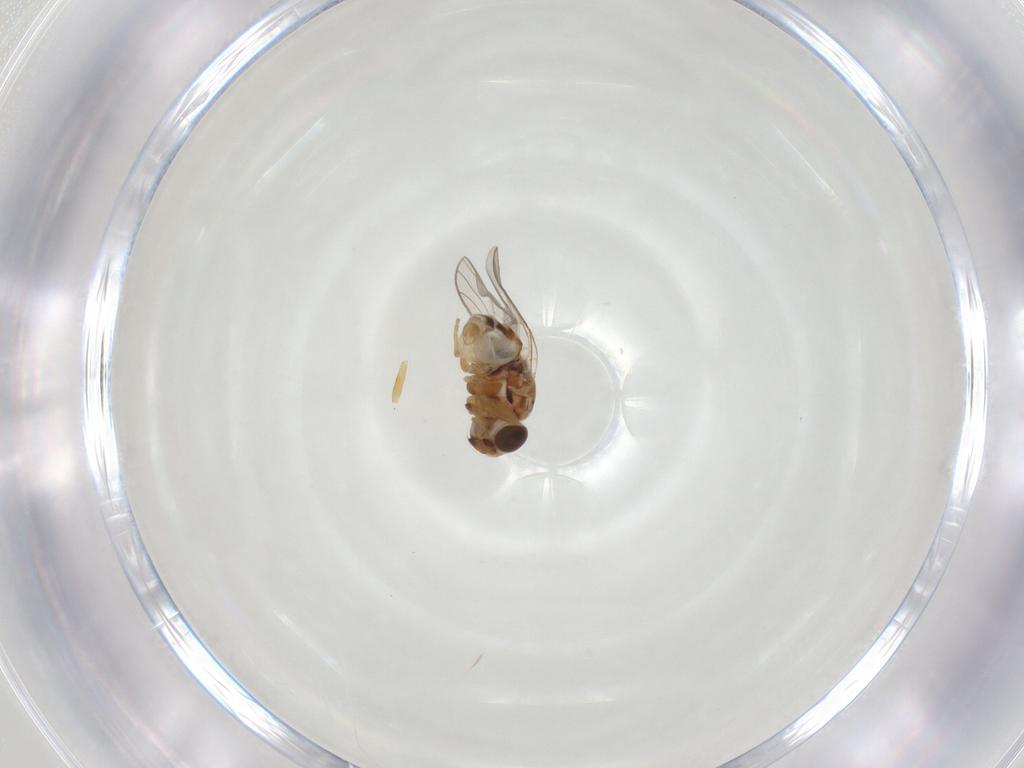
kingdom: Animalia
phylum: Arthropoda
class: Insecta
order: Diptera
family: Chloropidae
